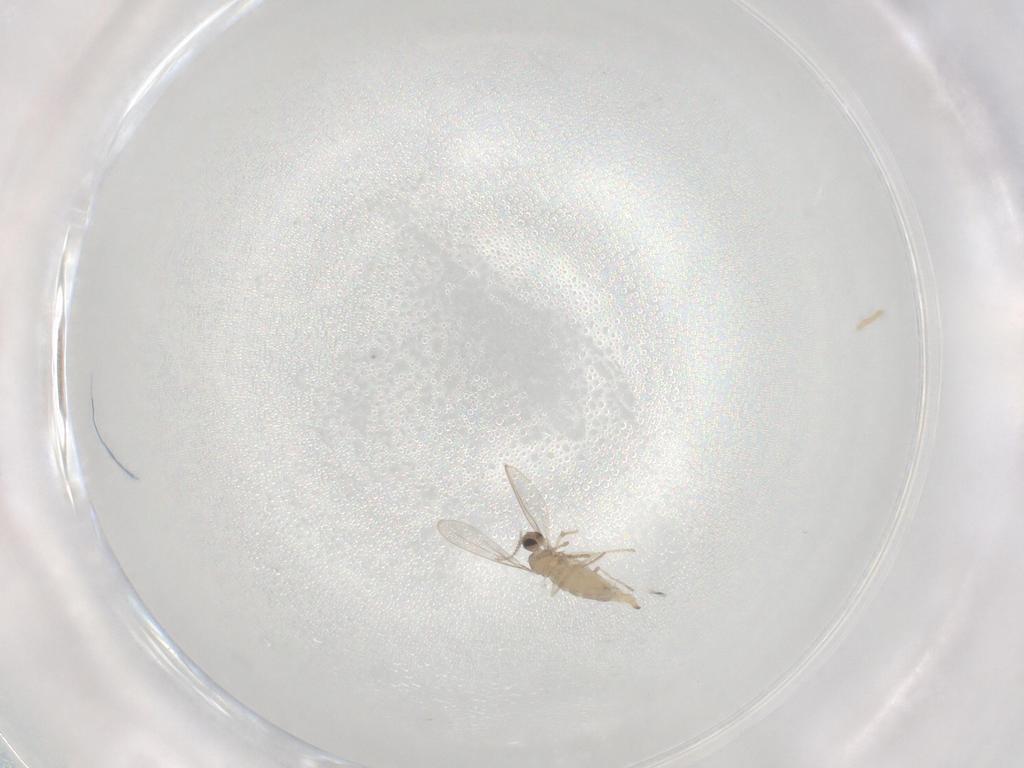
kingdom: Animalia
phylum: Arthropoda
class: Insecta
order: Diptera
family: Cecidomyiidae
